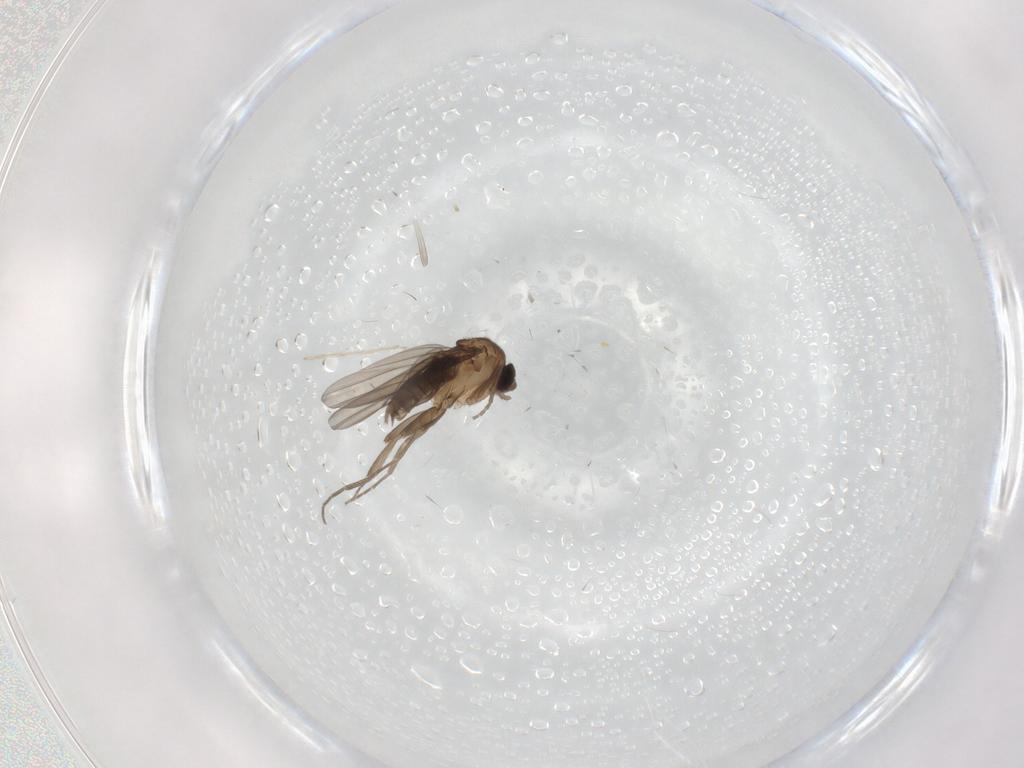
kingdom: Animalia
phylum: Arthropoda
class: Insecta
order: Diptera
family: Phoridae
